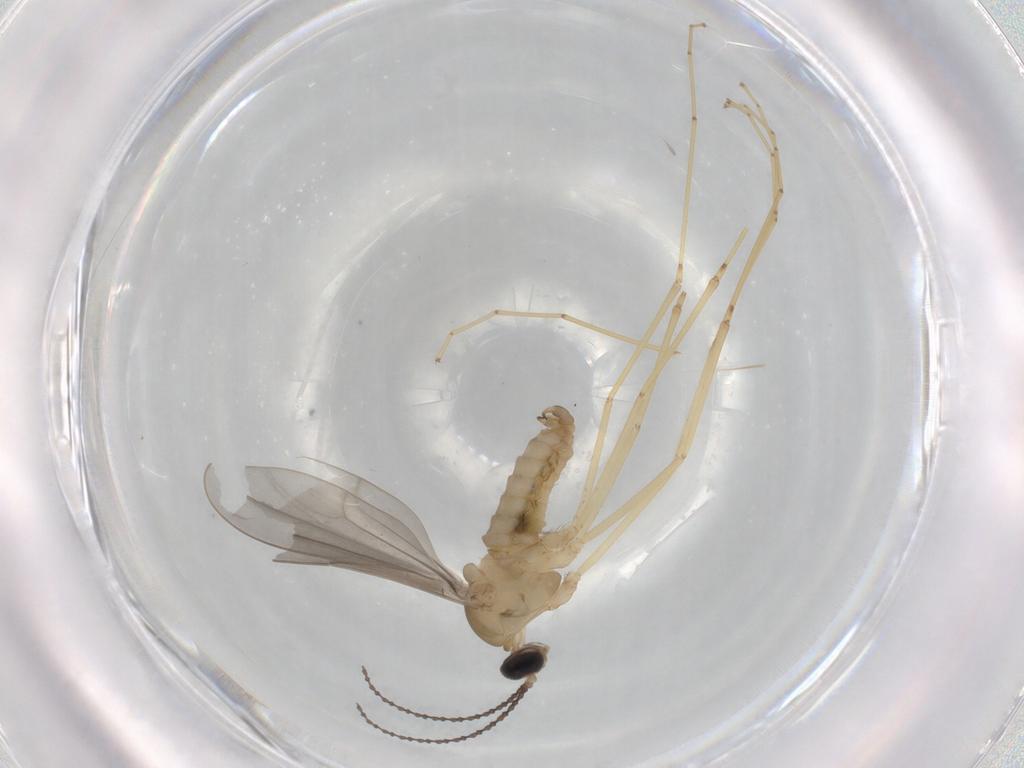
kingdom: Animalia
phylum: Arthropoda
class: Insecta
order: Diptera
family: Cecidomyiidae
